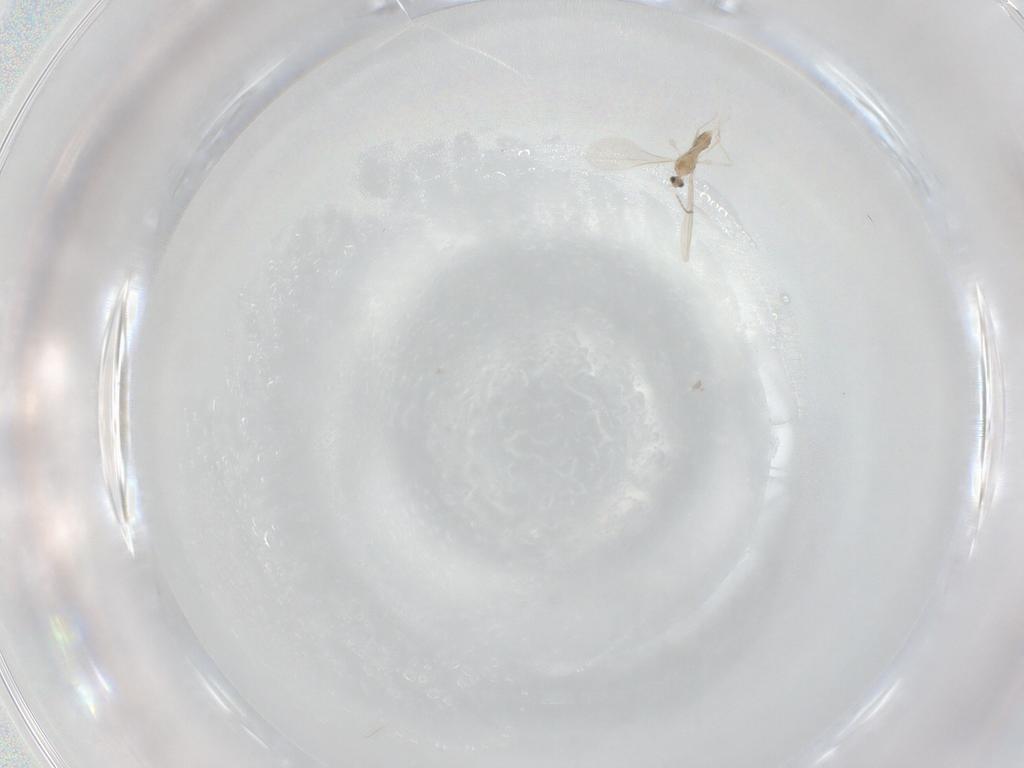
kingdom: Animalia
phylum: Arthropoda
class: Insecta
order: Diptera
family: Cecidomyiidae
